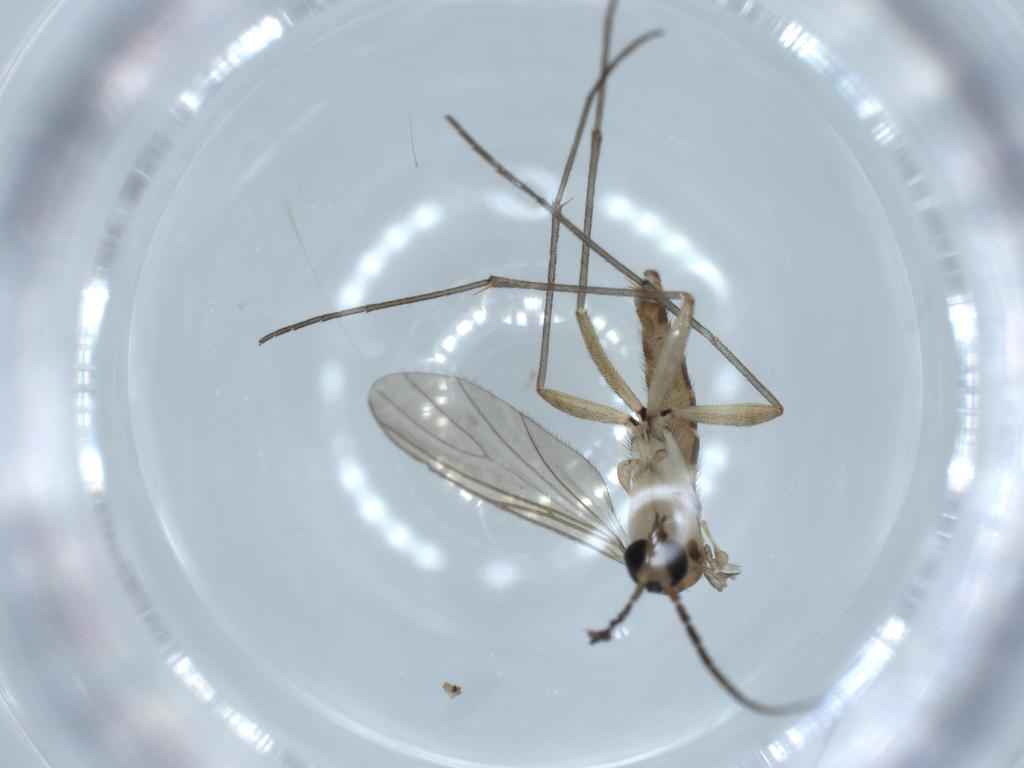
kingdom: Animalia
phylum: Arthropoda
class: Insecta
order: Diptera
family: Sciaridae
